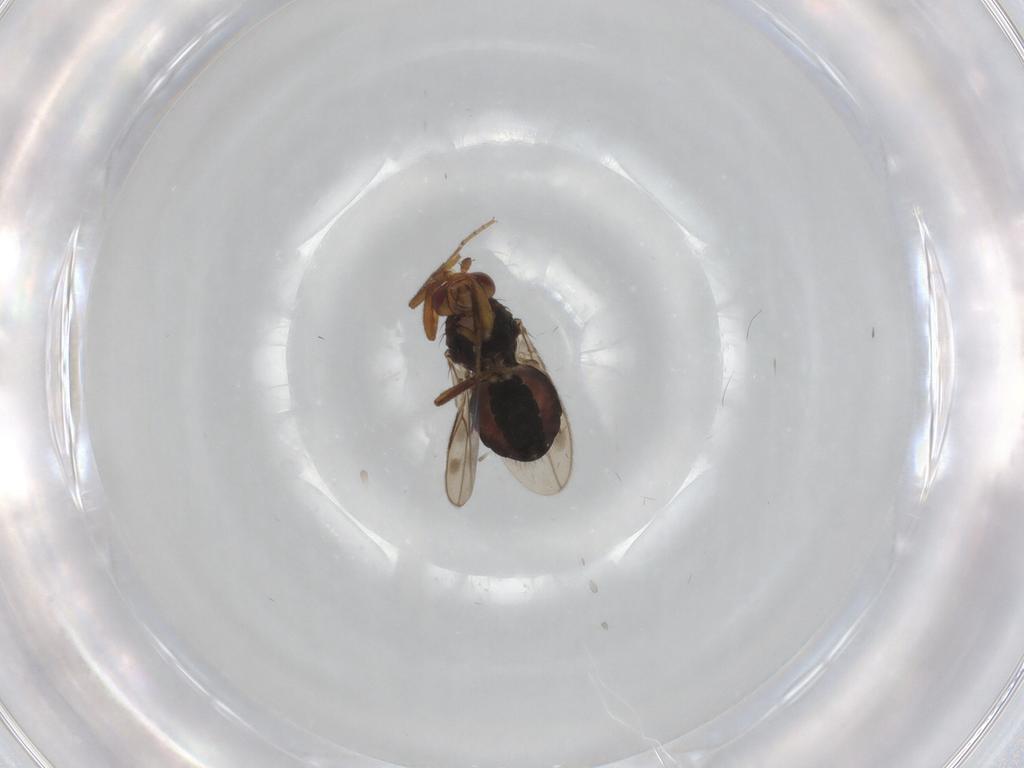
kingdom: Animalia
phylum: Arthropoda
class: Insecta
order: Diptera
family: Sphaeroceridae
